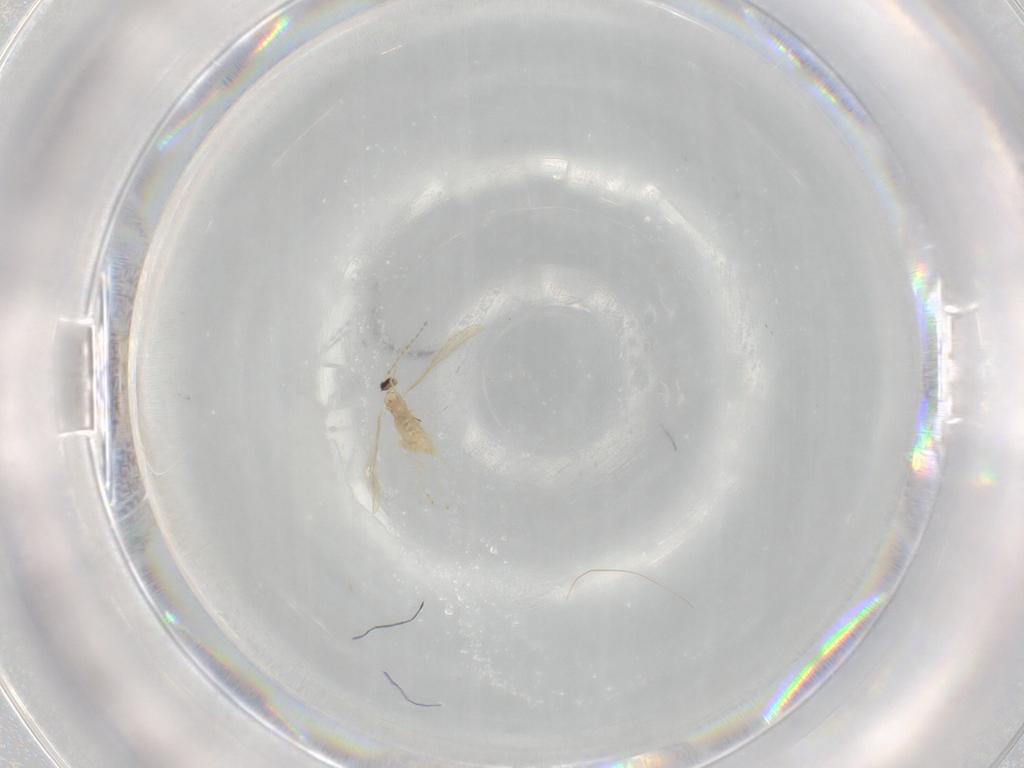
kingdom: Animalia
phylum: Arthropoda
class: Insecta
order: Diptera
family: Cecidomyiidae
